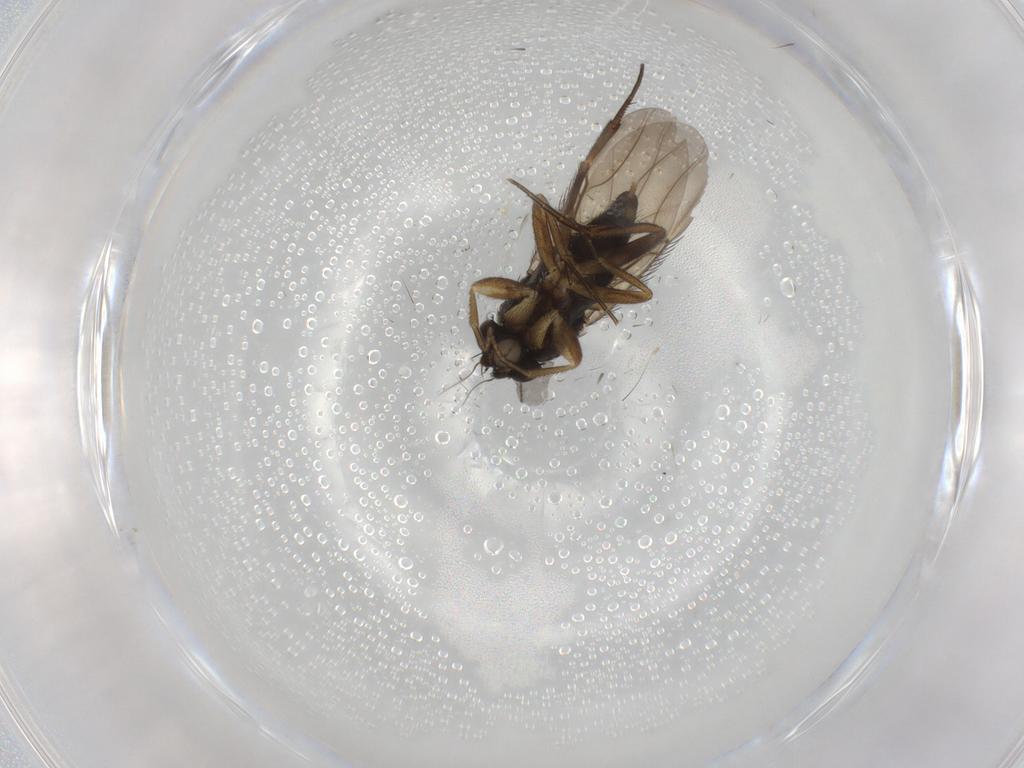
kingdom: Animalia
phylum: Arthropoda
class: Insecta
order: Diptera
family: Phoridae
